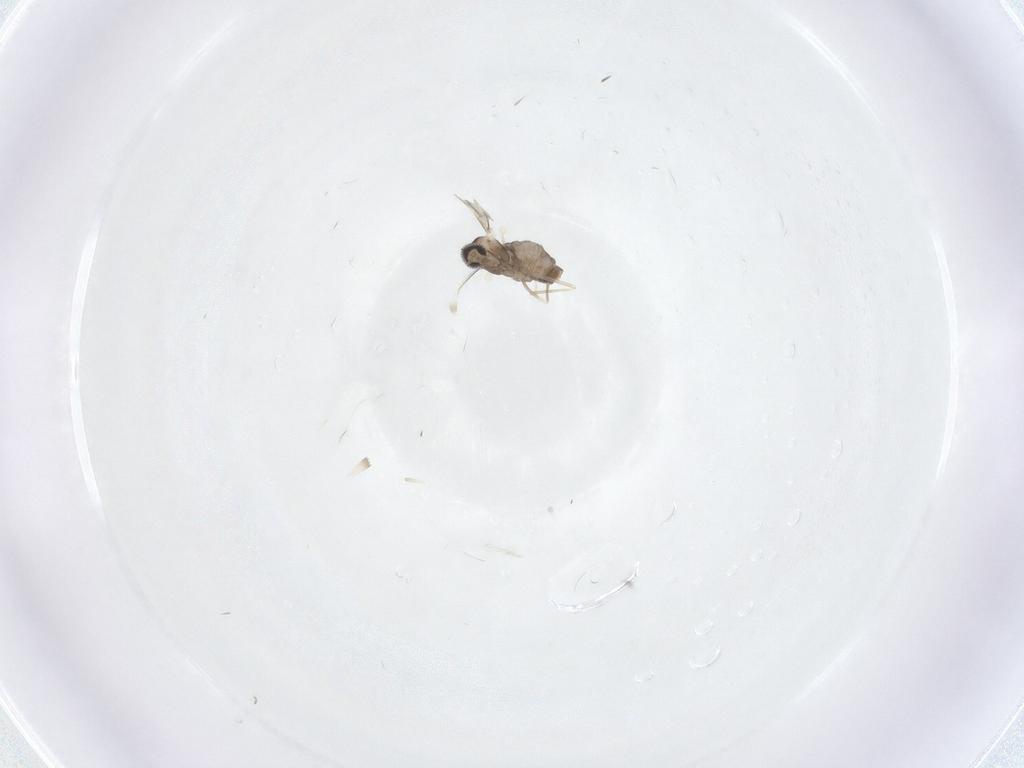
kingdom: Animalia
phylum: Arthropoda
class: Insecta
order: Diptera
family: Cecidomyiidae
